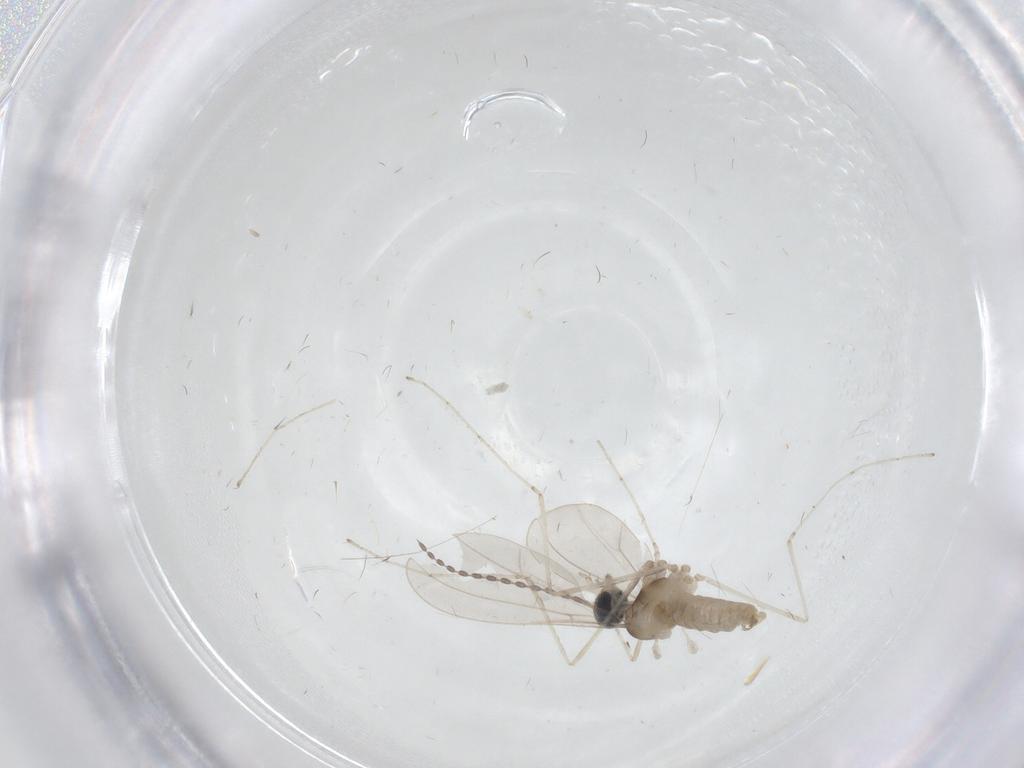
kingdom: Animalia
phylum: Arthropoda
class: Insecta
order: Diptera
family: Cecidomyiidae
